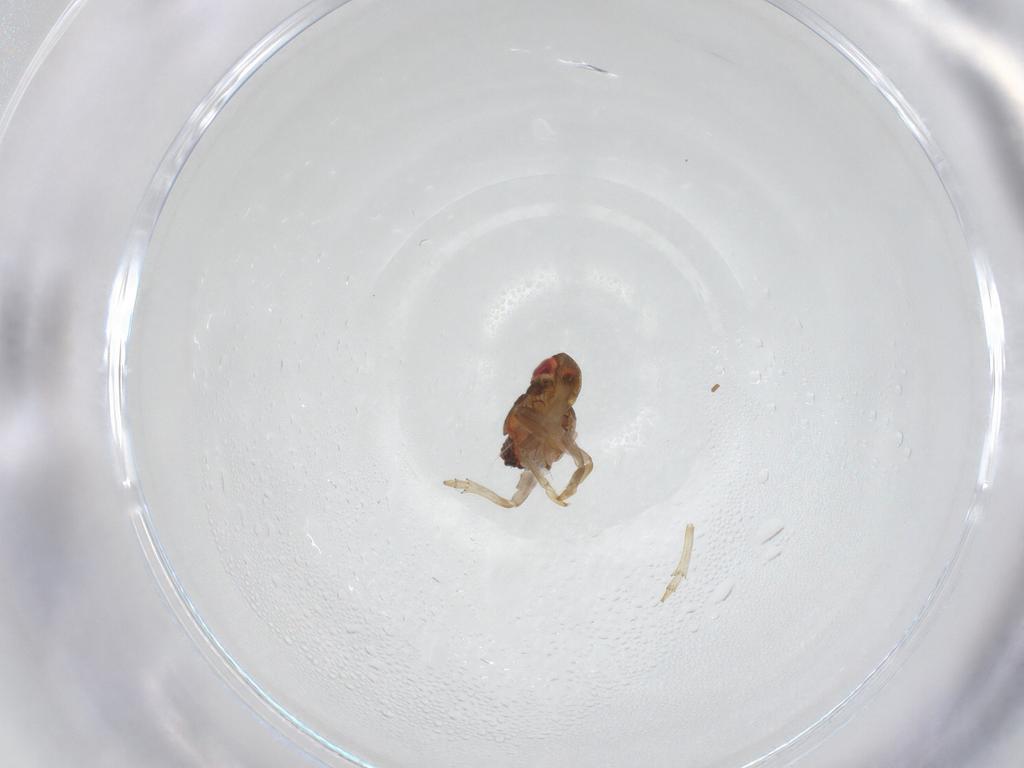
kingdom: Animalia
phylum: Arthropoda
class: Insecta
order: Hemiptera
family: Issidae
